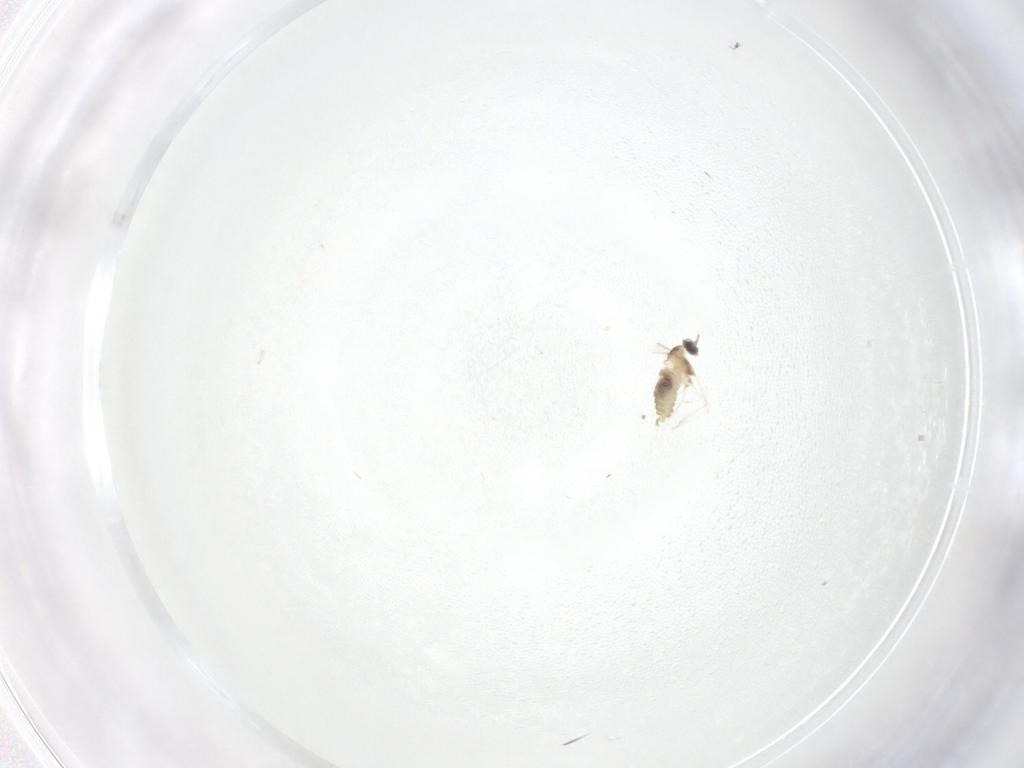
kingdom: Animalia
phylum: Arthropoda
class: Insecta
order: Diptera
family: Cecidomyiidae
